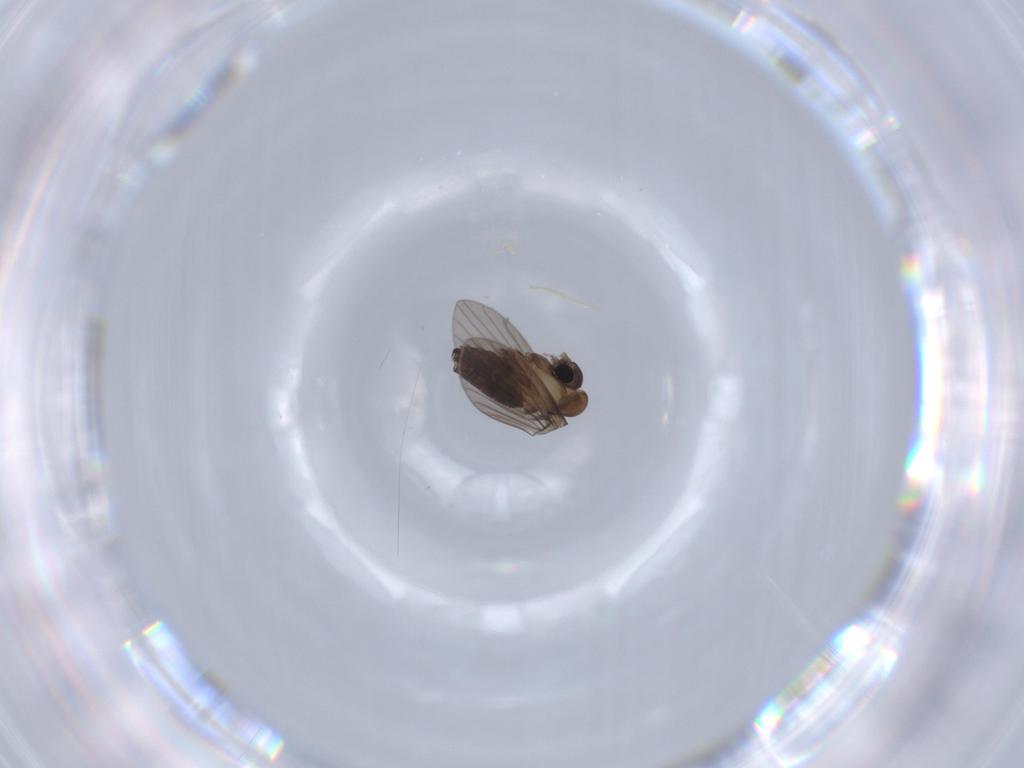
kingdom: Animalia
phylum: Arthropoda
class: Insecta
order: Diptera
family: Psychodidae
